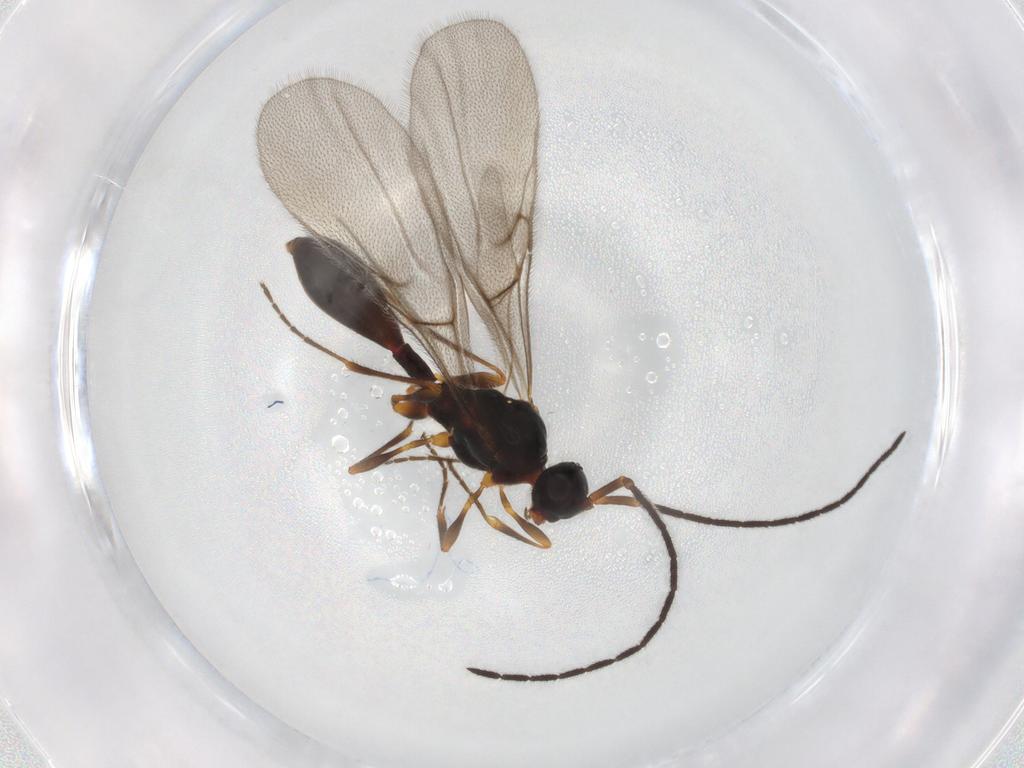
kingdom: Animalia
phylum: Arthropoda
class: Insecta
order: Hymenoptera
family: Diapriidae
